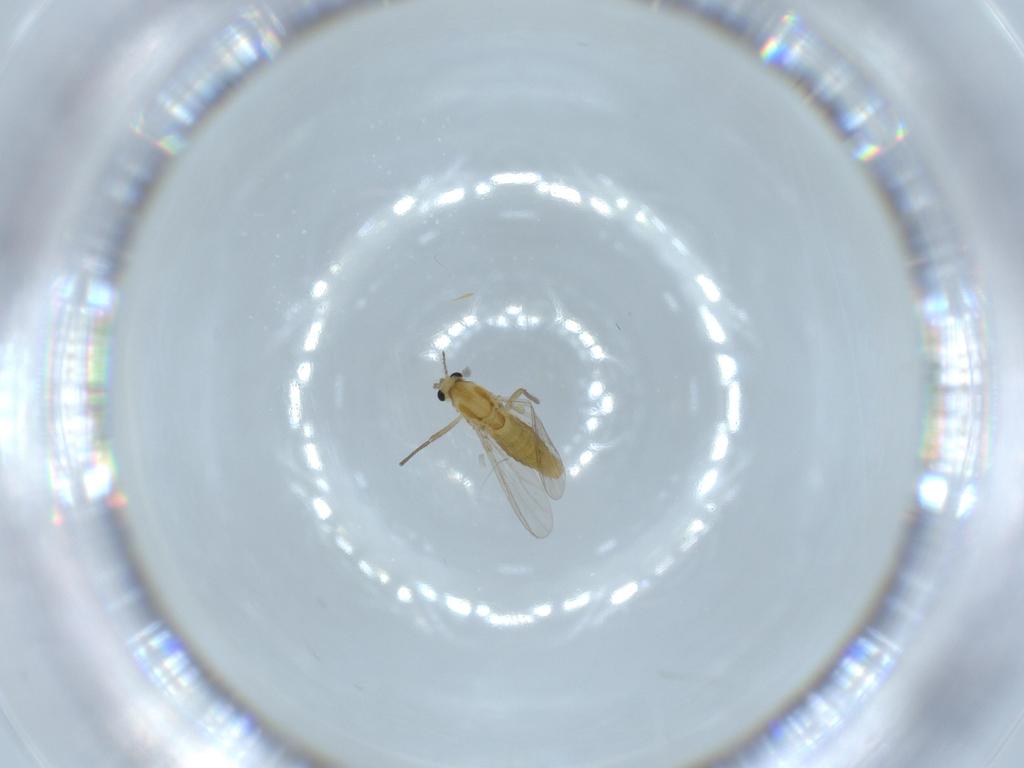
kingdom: Animalia
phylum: Arthropoda
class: Insecta
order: Diptera
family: Chironomidae
